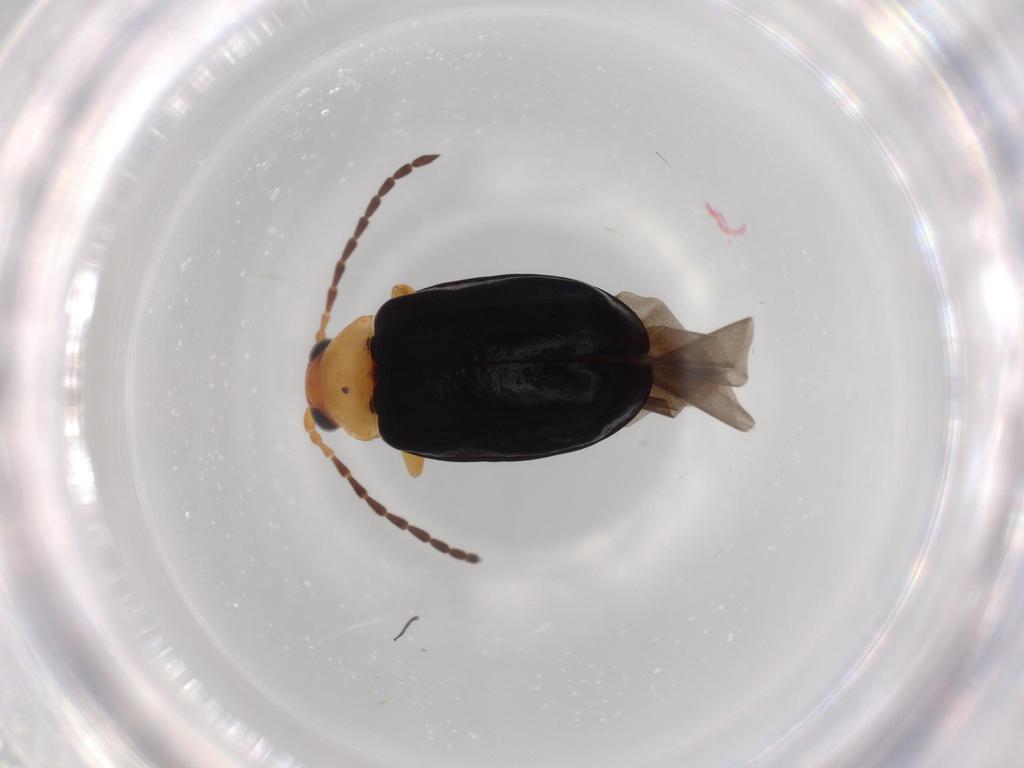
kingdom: Animalia
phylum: Arthropoda
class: Insecta
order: Coleoptera
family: Chrysomelidae
